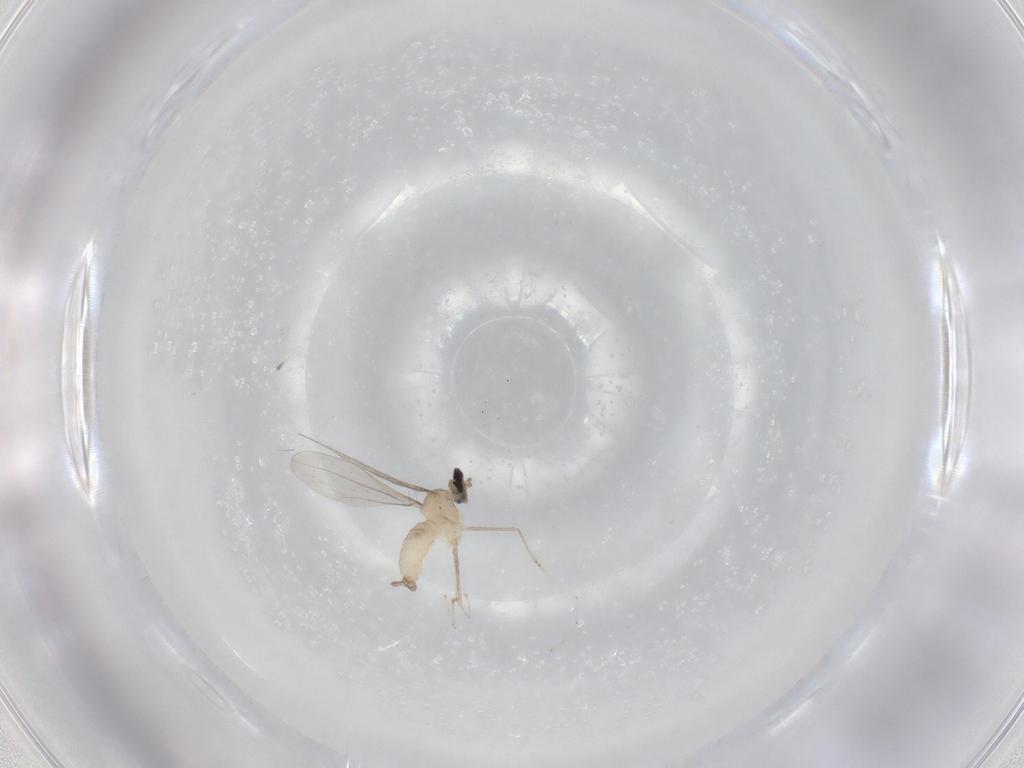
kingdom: Animalia
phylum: Arthropoda
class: Insecta
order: Diptera
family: Cecidomyiidae
